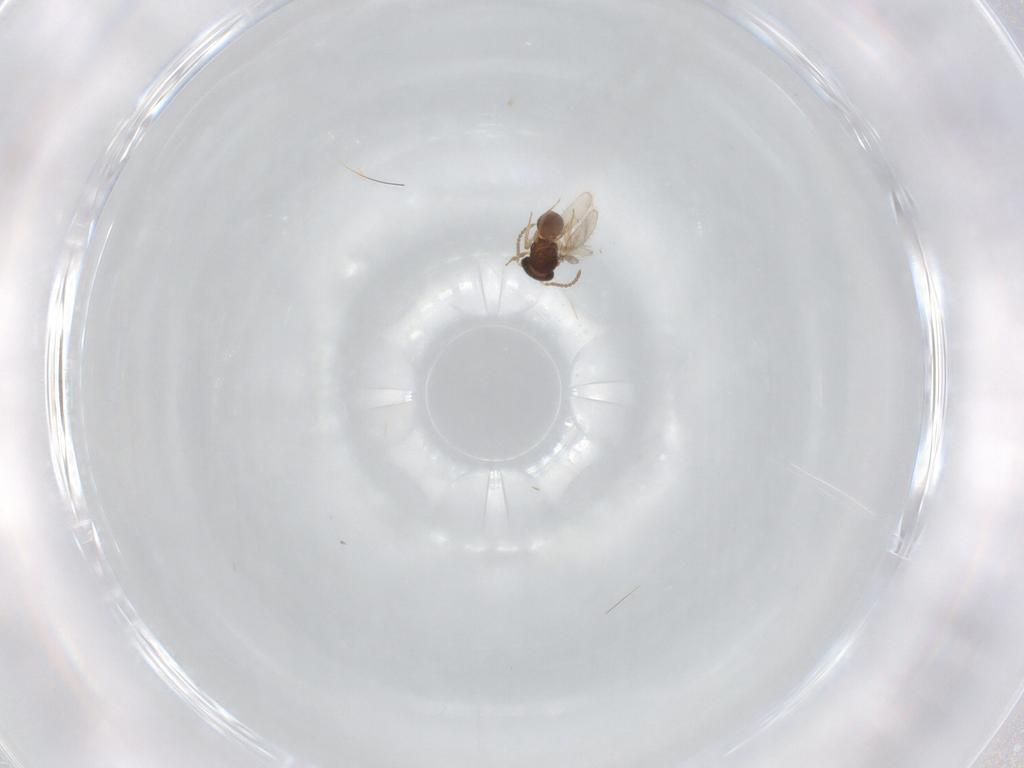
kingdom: Animalia
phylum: Arthropoda
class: Insecta
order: Hymenoptera
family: Scelionidae
